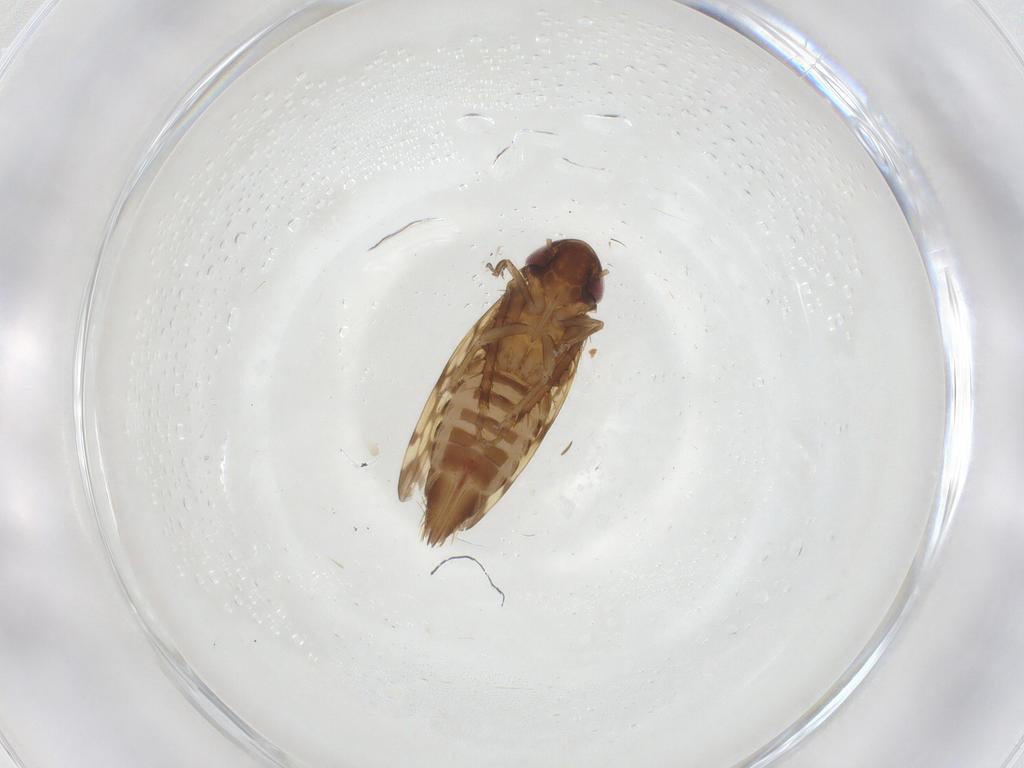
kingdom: Animalia
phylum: Arthropoda
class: Insecta
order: Hemiptera
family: Cicadellidae
